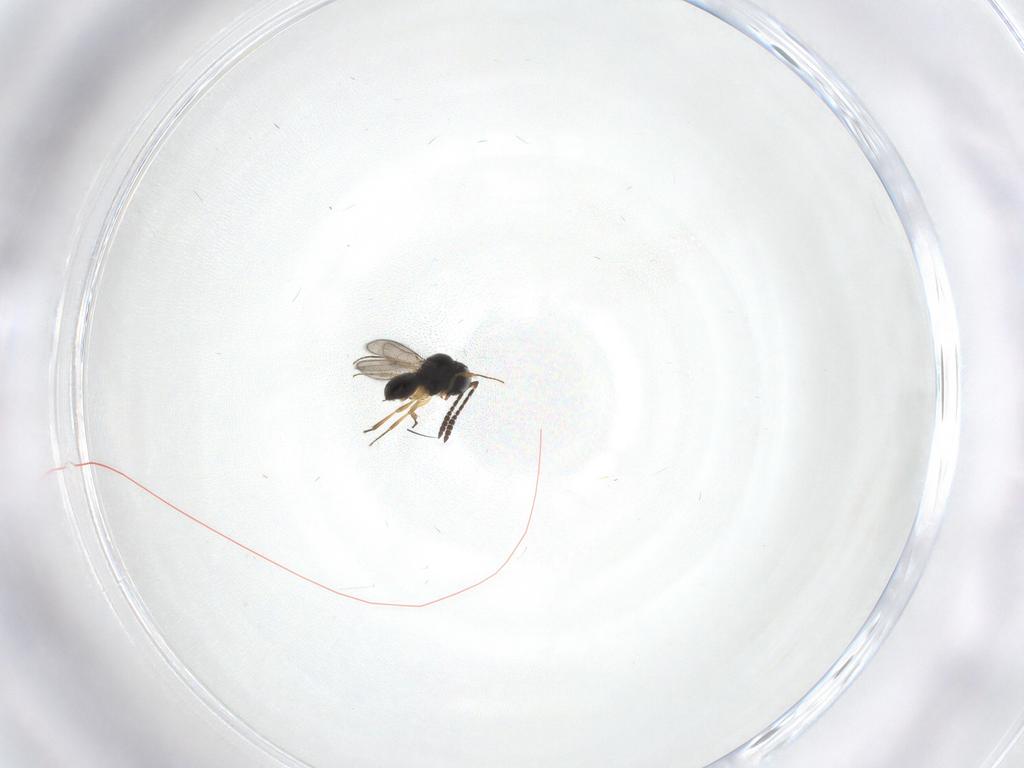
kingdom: Animalia
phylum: Arthropoda
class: Insecta
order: Hymenoptera
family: Scelionidae
